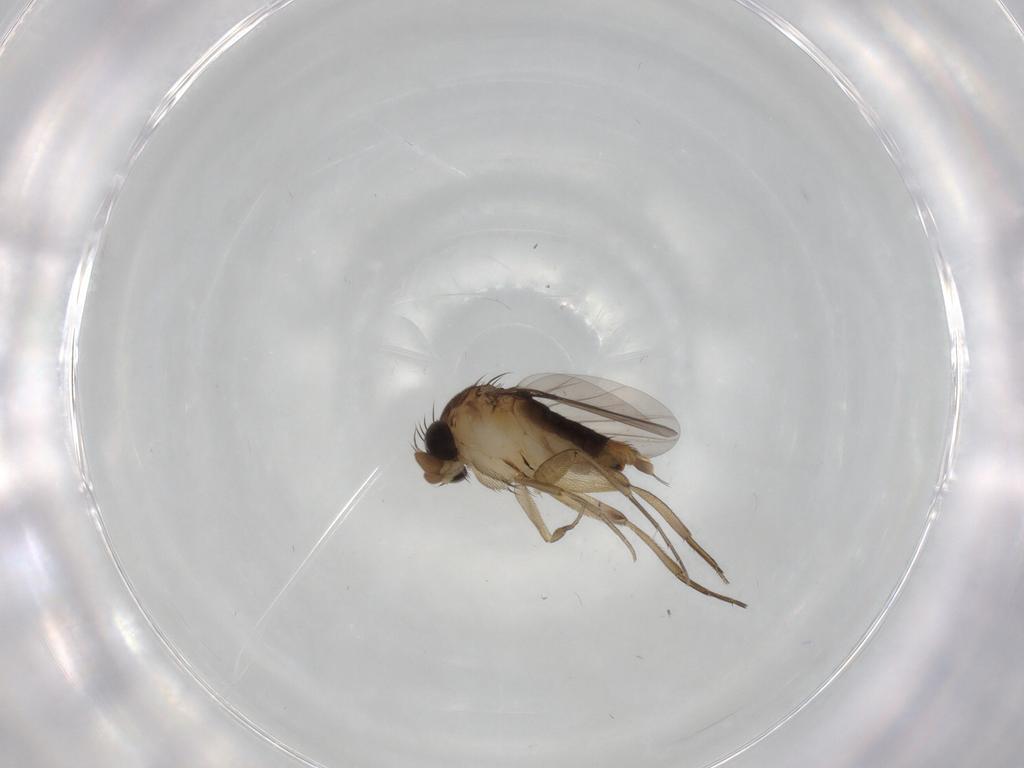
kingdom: Animalia
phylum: Arthropoda
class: Insecta
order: Diptera
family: Phoridae
